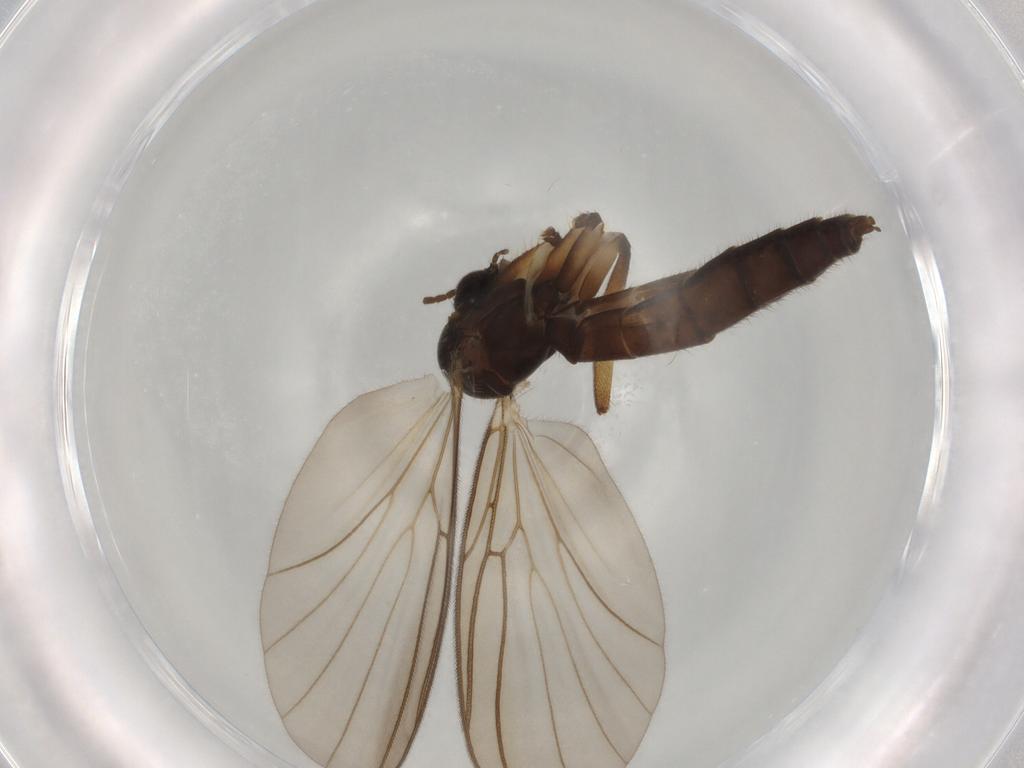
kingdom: Animalia
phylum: Arthropoda
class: Insecta
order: Diptera
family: Mycetophilidae
